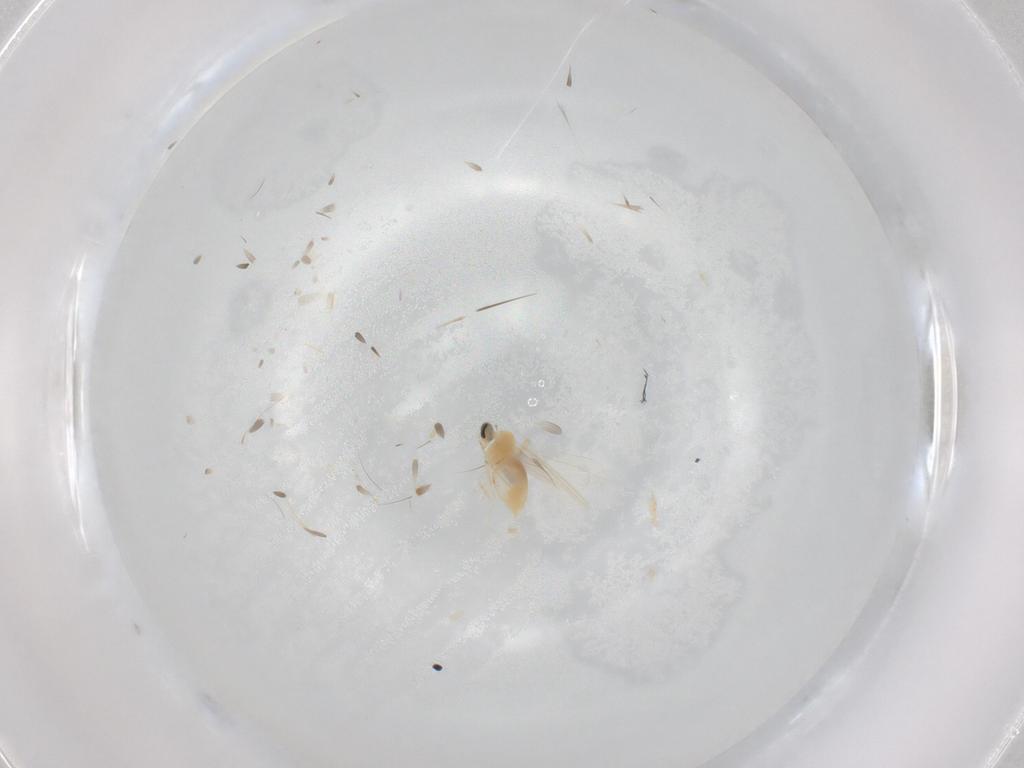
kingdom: Animalia
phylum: Arthropoda
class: Insecta
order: Diptera
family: Cecidomyiidae
